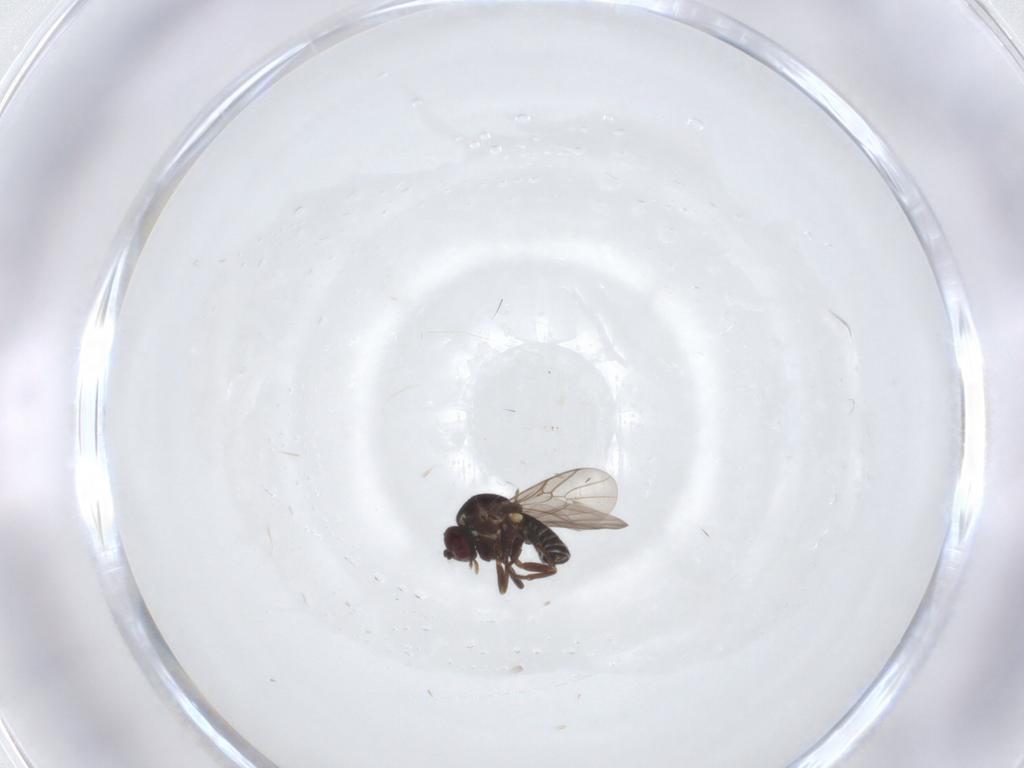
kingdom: Animalia
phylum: Arthropoda
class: Insecta
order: Diptera
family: Mythicomyiidae
